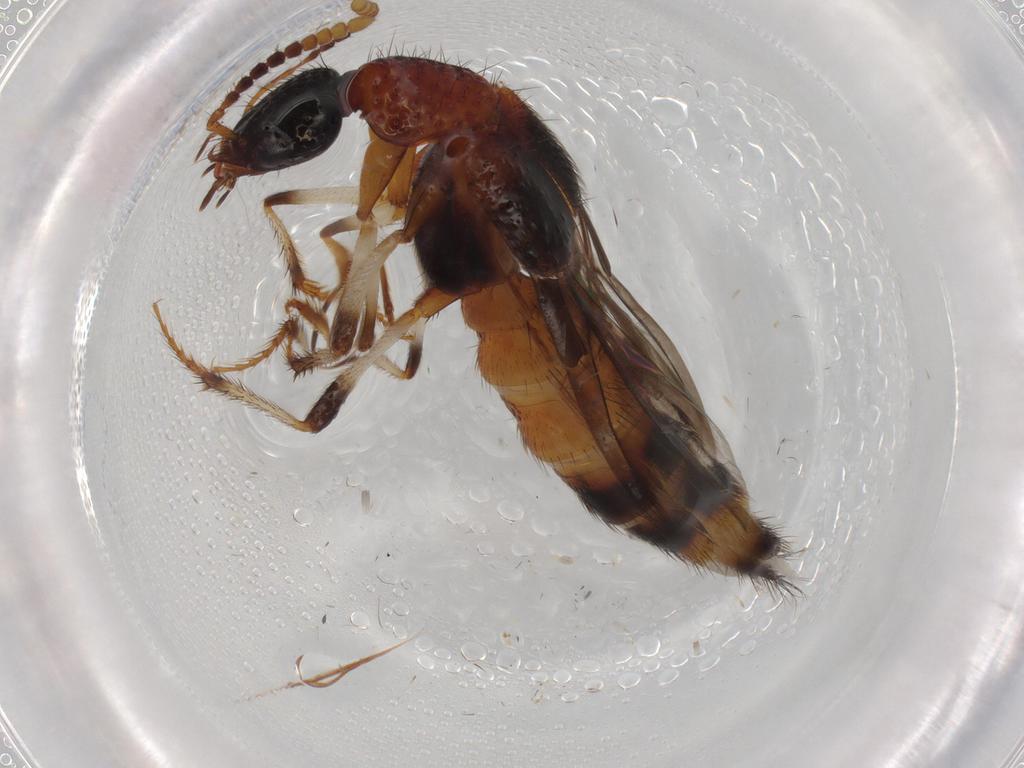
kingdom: Animalia
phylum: Arthropoda
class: Insecta
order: Coleoptera
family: Staphylinidae
